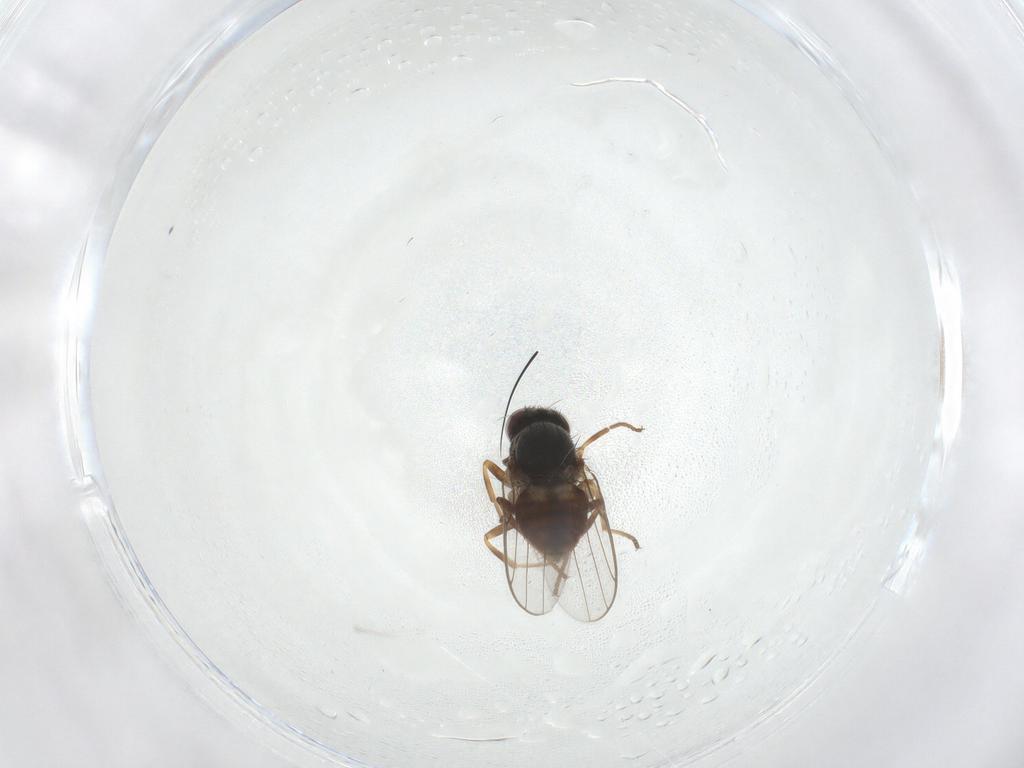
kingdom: Animalia
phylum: Arthropoda
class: Insecta
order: Diptera
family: Chloropidae
